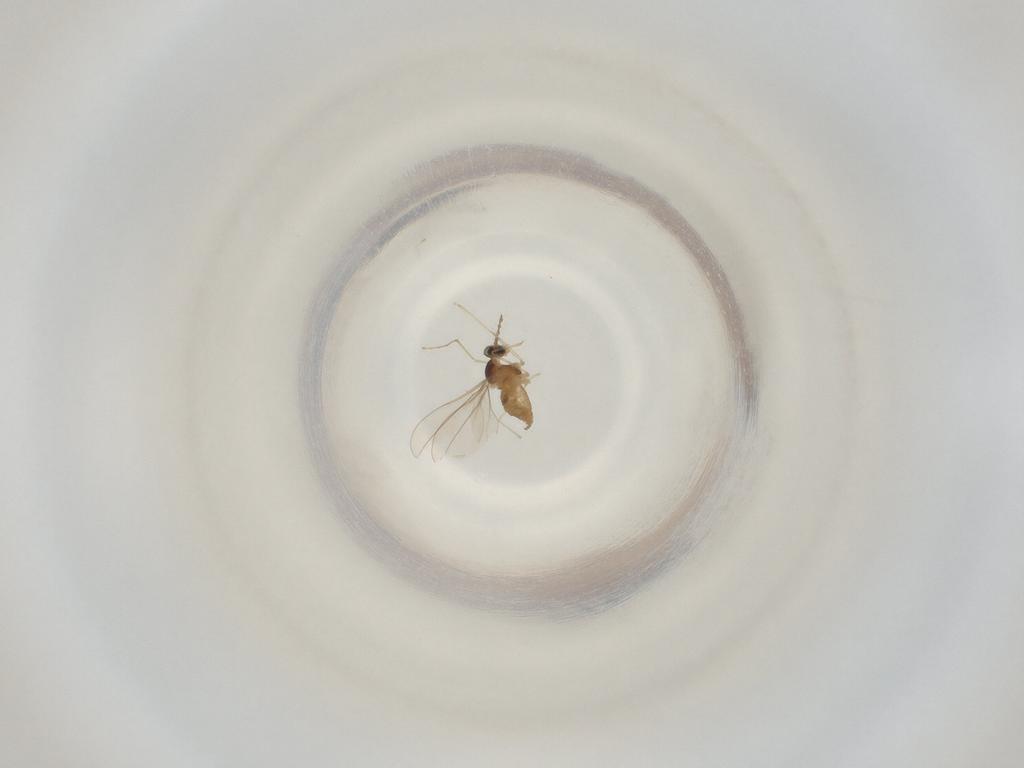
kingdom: Animalia
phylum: Arthropoda
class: Insecta
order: Diptera
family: Cecidomyiidae
